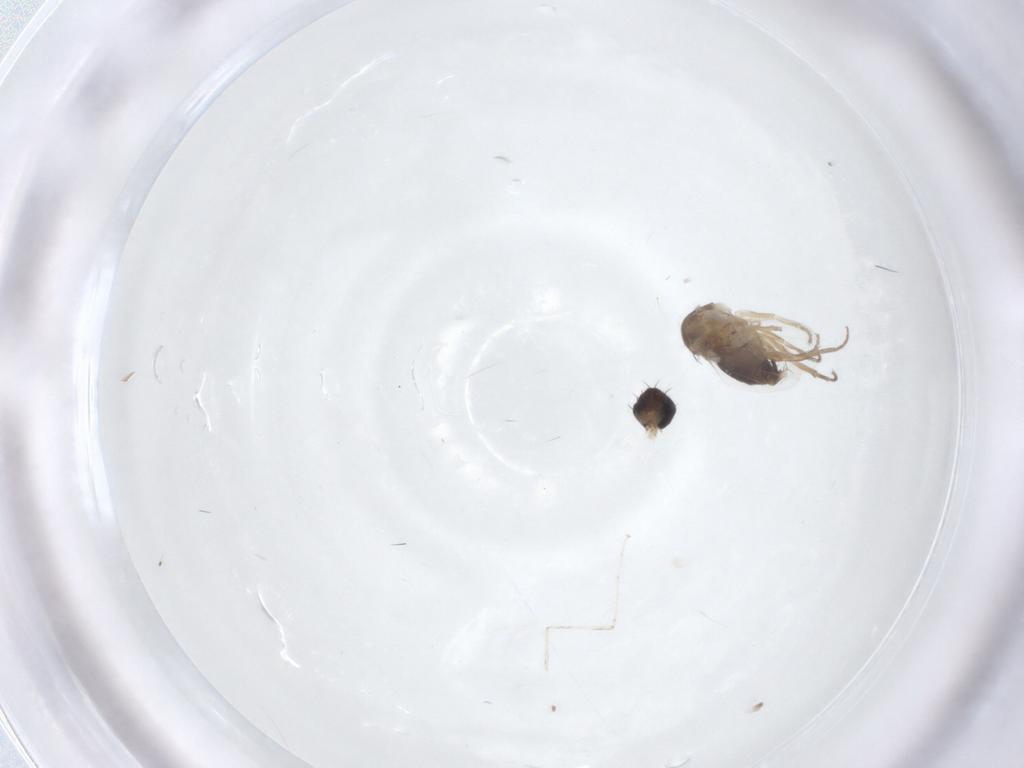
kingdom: Animalia
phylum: Arthropoda
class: Insecta
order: Diptera
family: Cecidomyiidae
